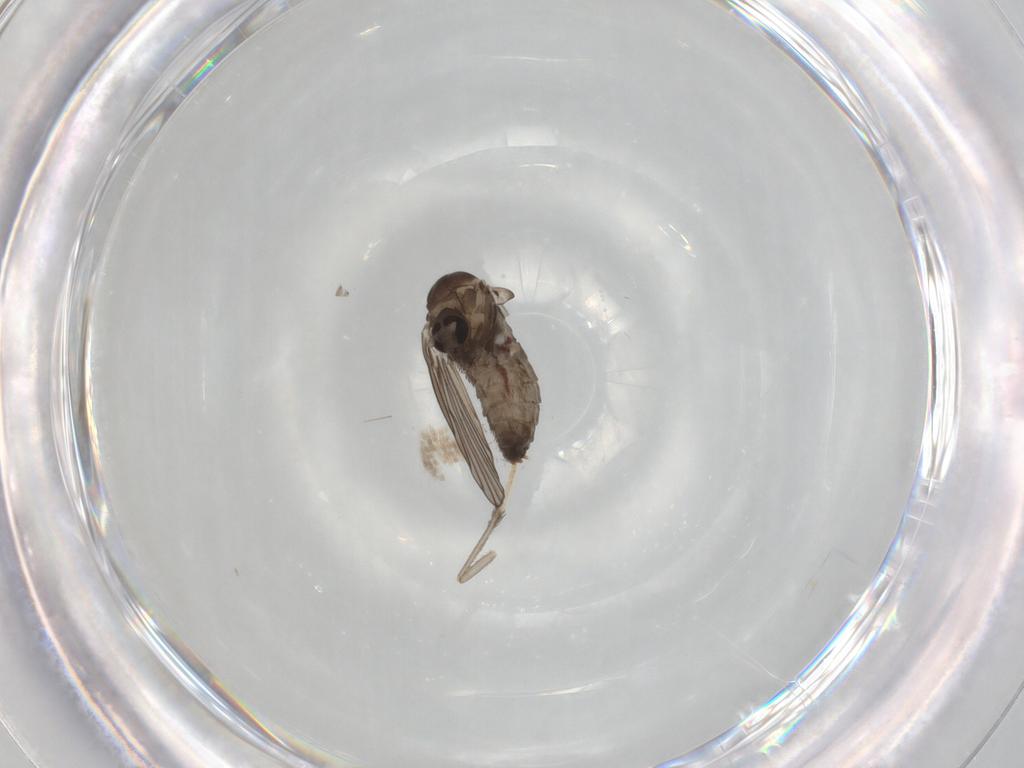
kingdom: Animalia
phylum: Arthropoda
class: Insecta
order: Diptera
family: Psychodidae
